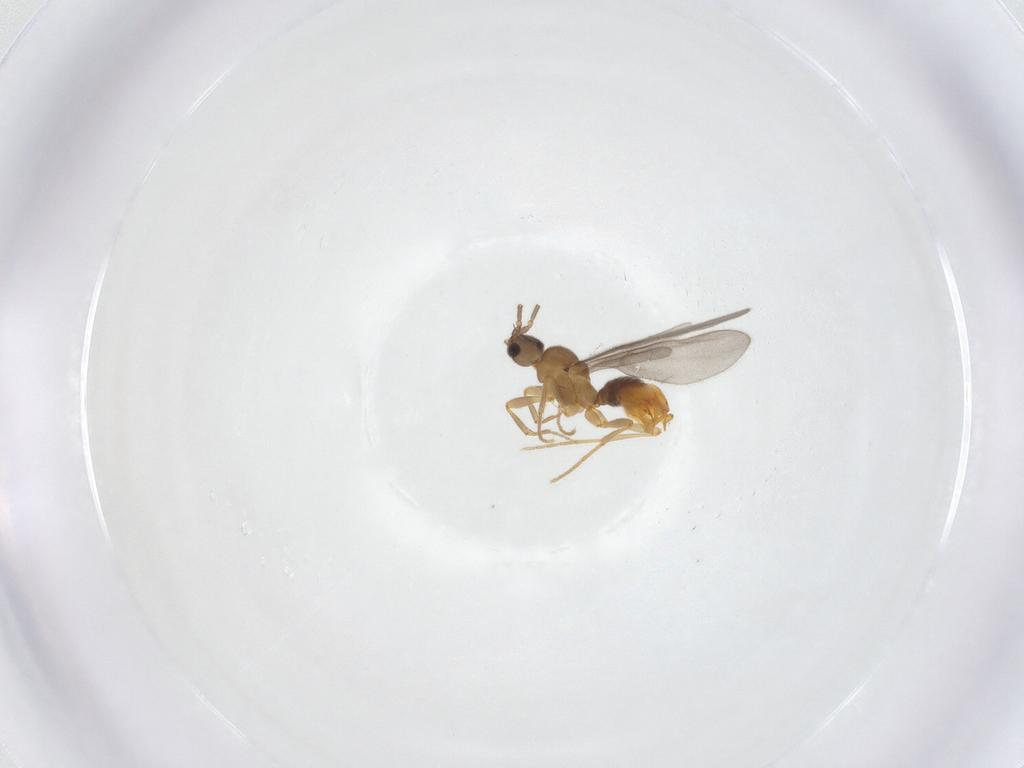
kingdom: Animalia
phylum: Arthropoda
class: Insecta
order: Hymenoptera
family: Formicidae
